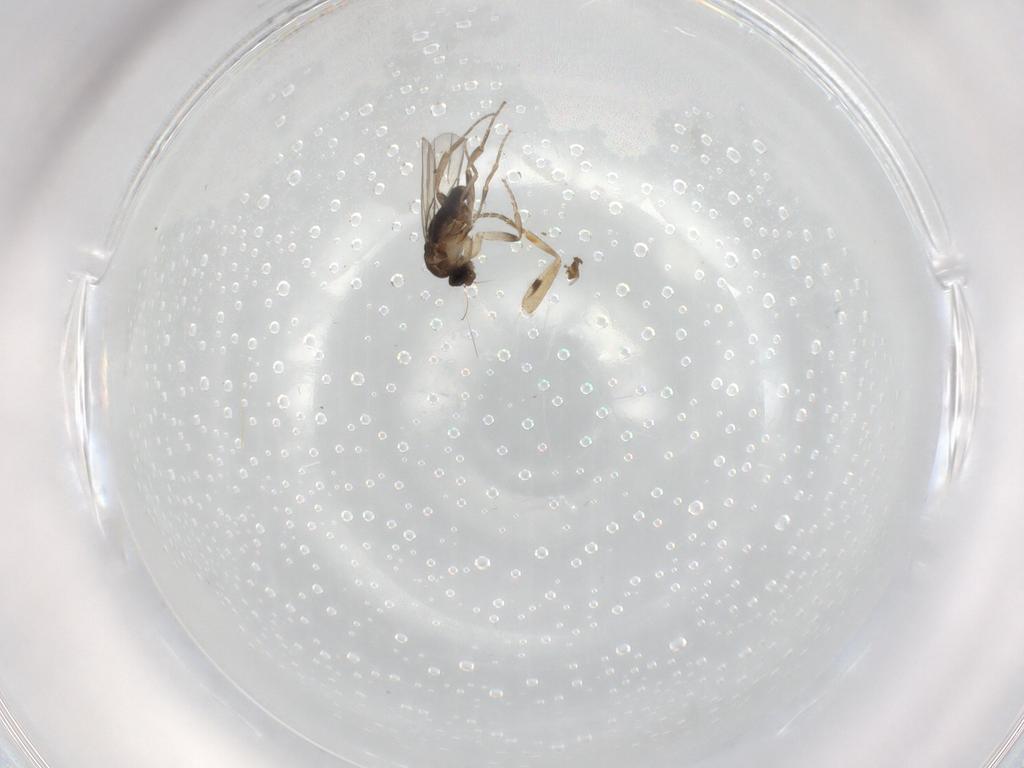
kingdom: Animalia
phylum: Arthropoda
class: Insecta
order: Diptera
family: Phoridae
